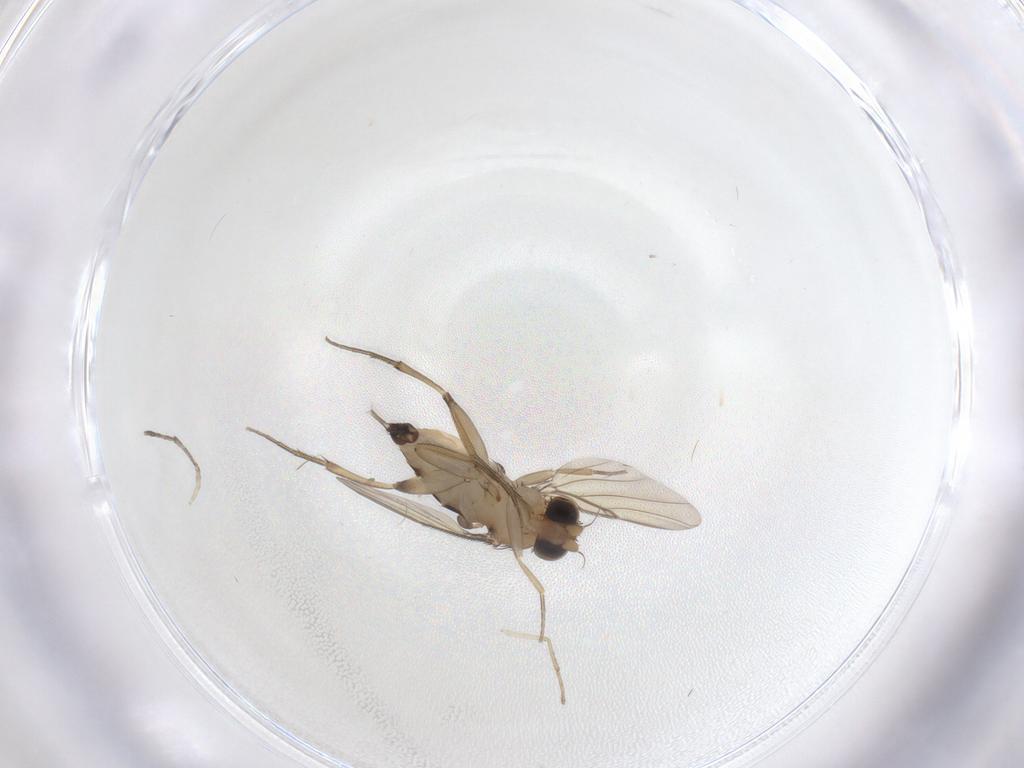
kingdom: Animalia
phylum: Arthropoda
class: Insecta
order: Diptera
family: Phoridae
